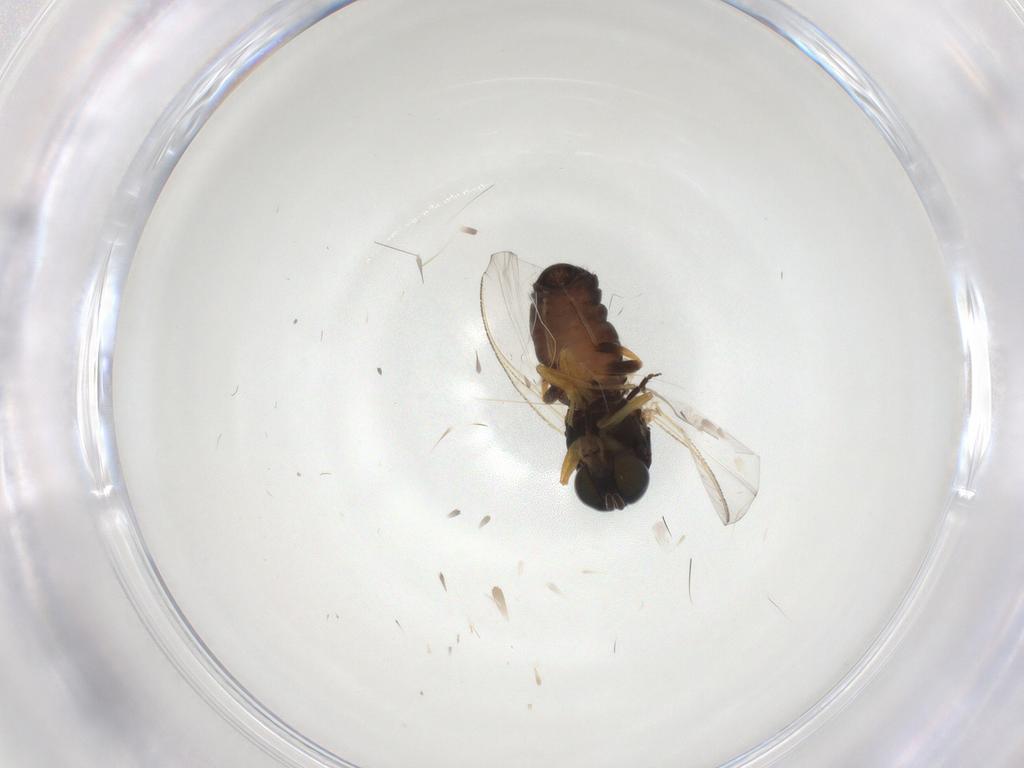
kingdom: Animalia
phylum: Arthropoda
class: Insecta
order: Diptera
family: Simuliidae
